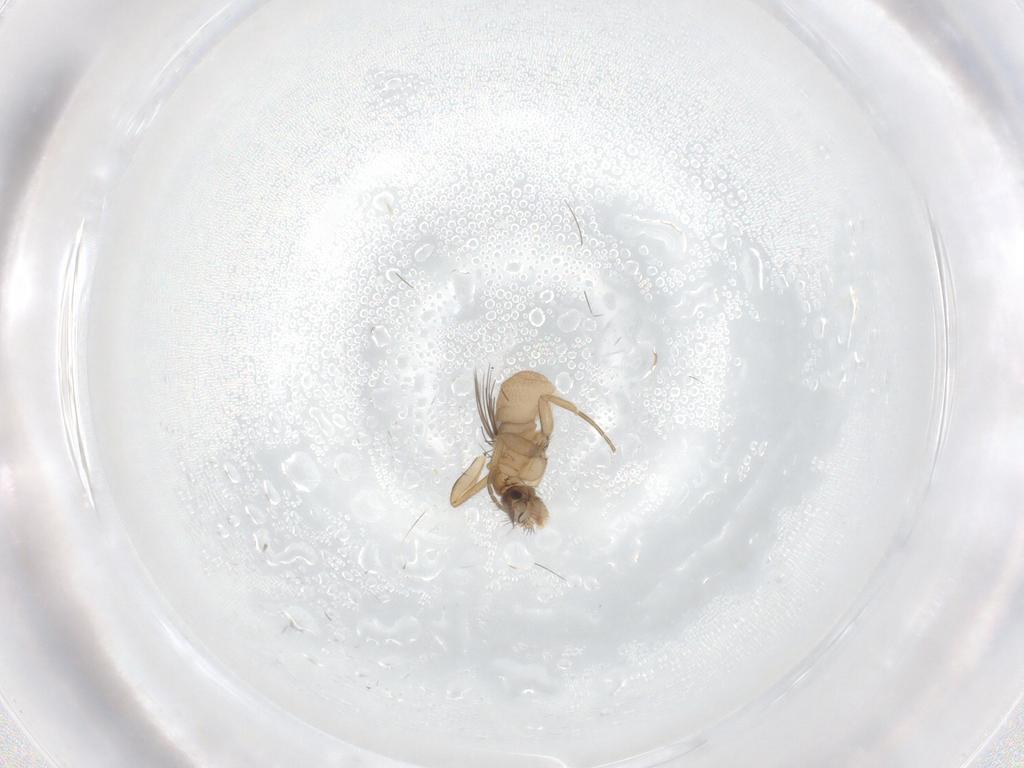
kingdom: Animalia
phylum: Arthropoda
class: Insecta
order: Diptera
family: Phoridae
